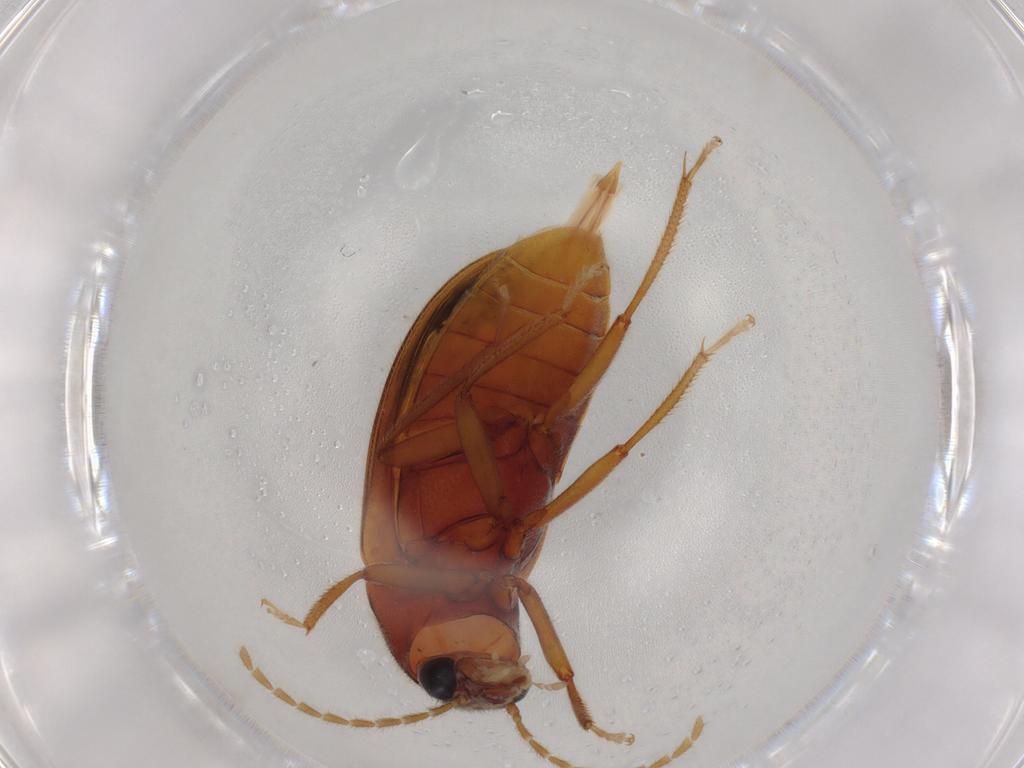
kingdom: Animalia
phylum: Arthropoda
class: Insecta
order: Coleoptera
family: Ptilodactylidae
